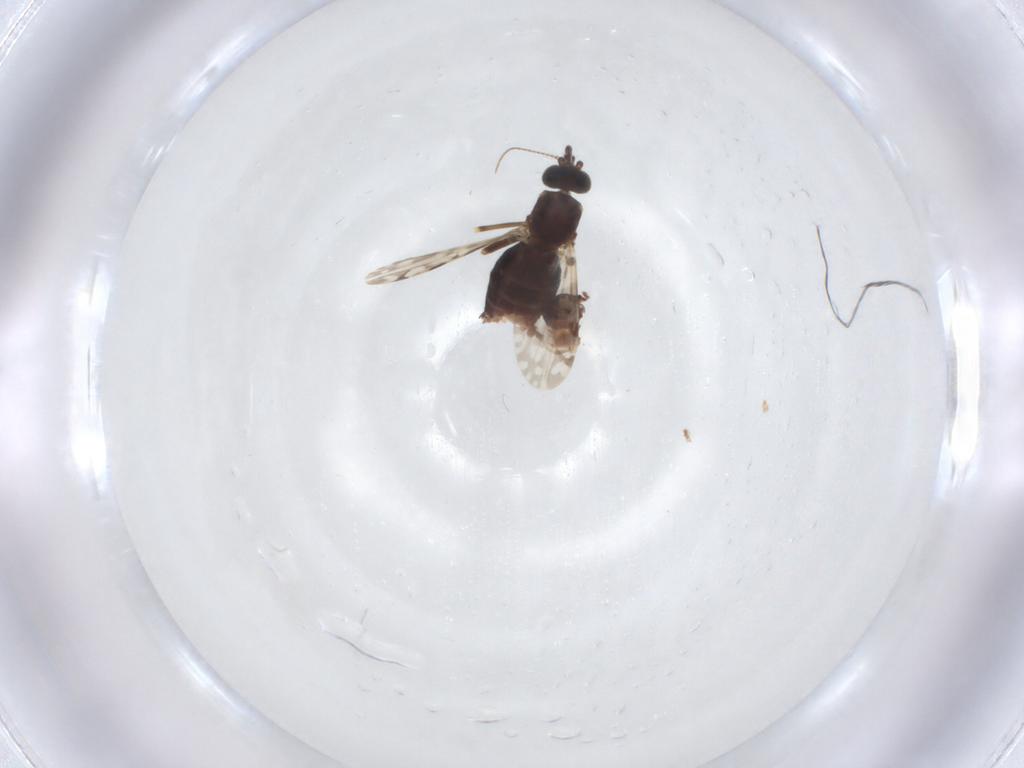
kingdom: Animalia
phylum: Arthropoda
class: Insecta
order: Diptera
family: Ceratopogonidae
